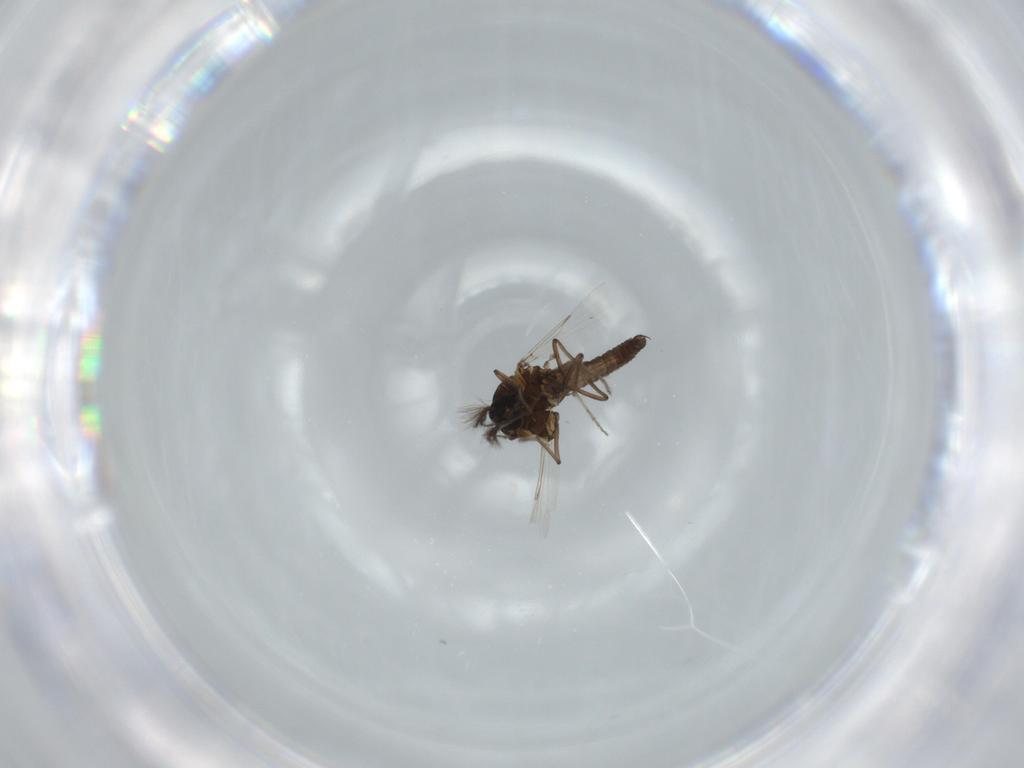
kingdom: Animalia
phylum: Arthropoda
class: Insecta
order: Diptera
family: Ceratopogonidae
